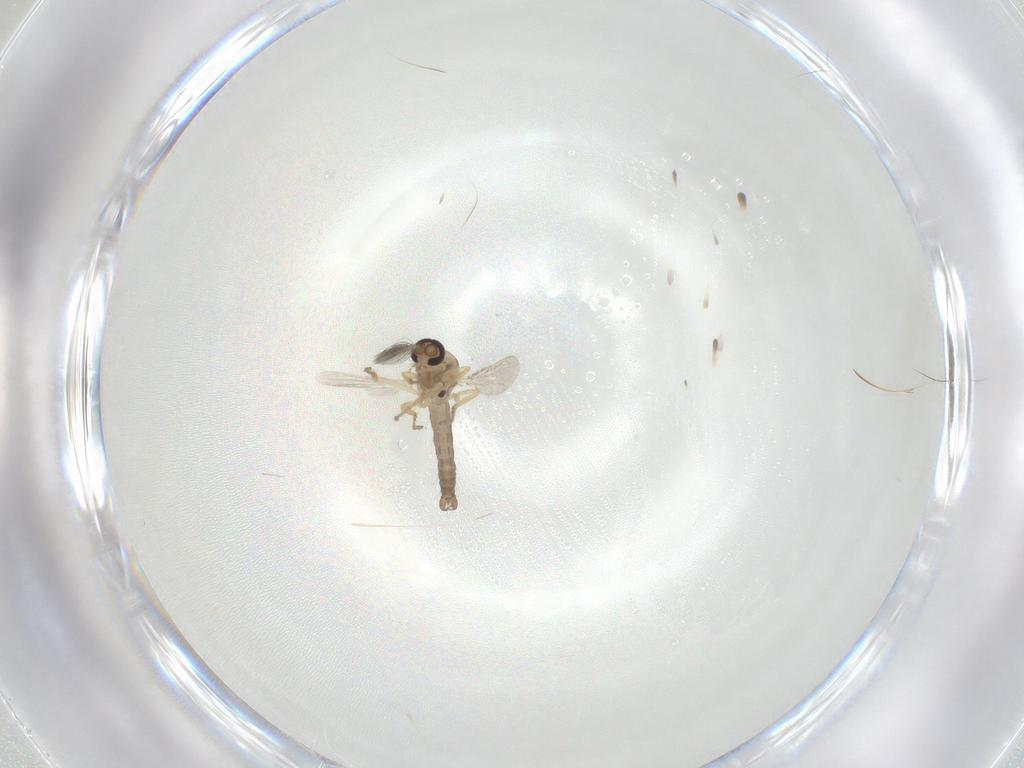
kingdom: Animalia
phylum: Arthropoda
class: Insecta
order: Diptera
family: Ceratopogonidae
